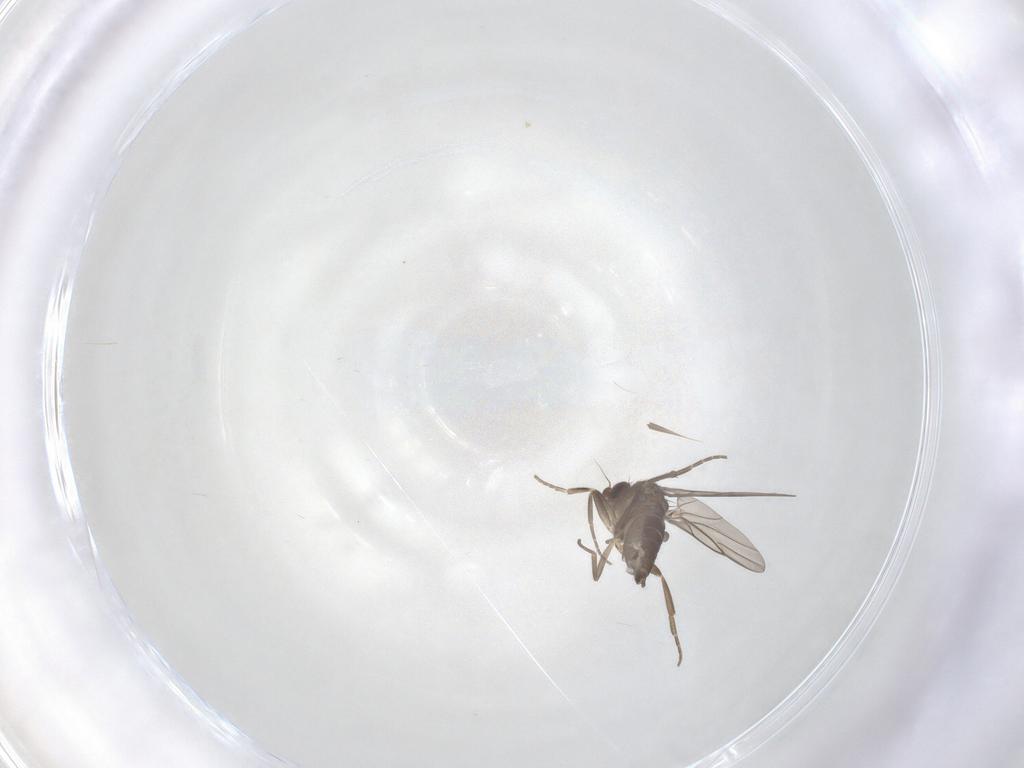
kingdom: Animalia
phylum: Arthropoda
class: Insecta
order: Diptera
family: Phoridae
